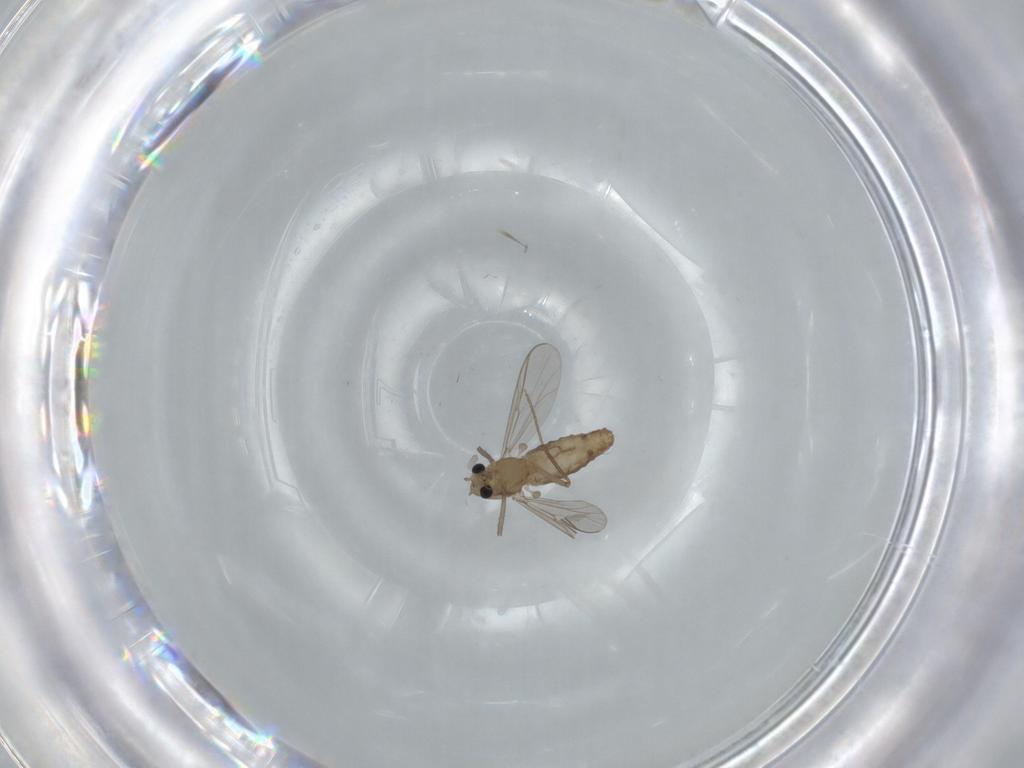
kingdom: Animalia
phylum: Arthropoda
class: Insecta
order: Diptera
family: Chironomidae
